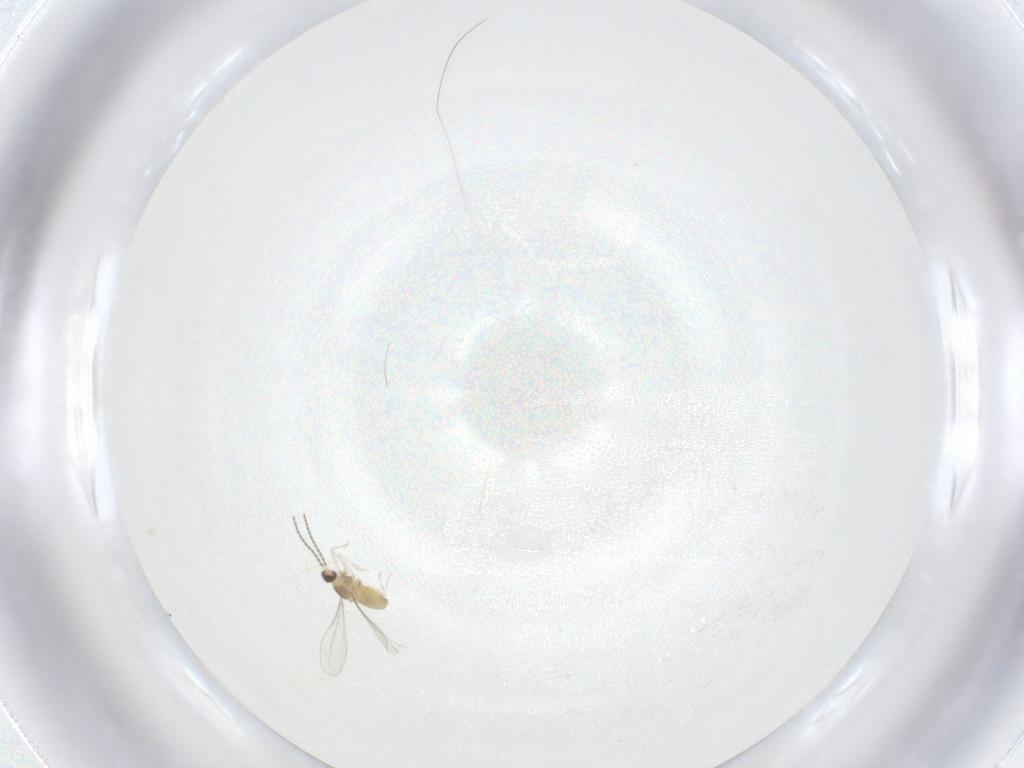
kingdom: Animalia
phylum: Arthropoda
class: Insecta
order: Diptera
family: Cecidomyiidae
